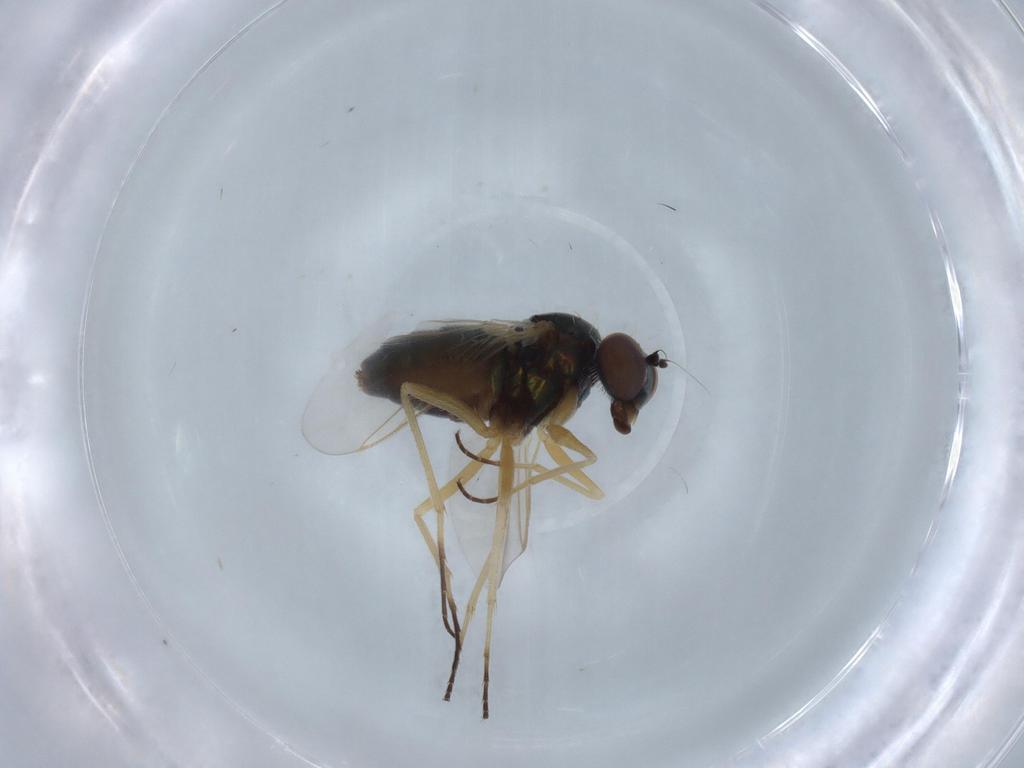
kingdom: Animalia
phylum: Arthropoda
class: Insecta
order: Diptera
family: Dolichopodidae
